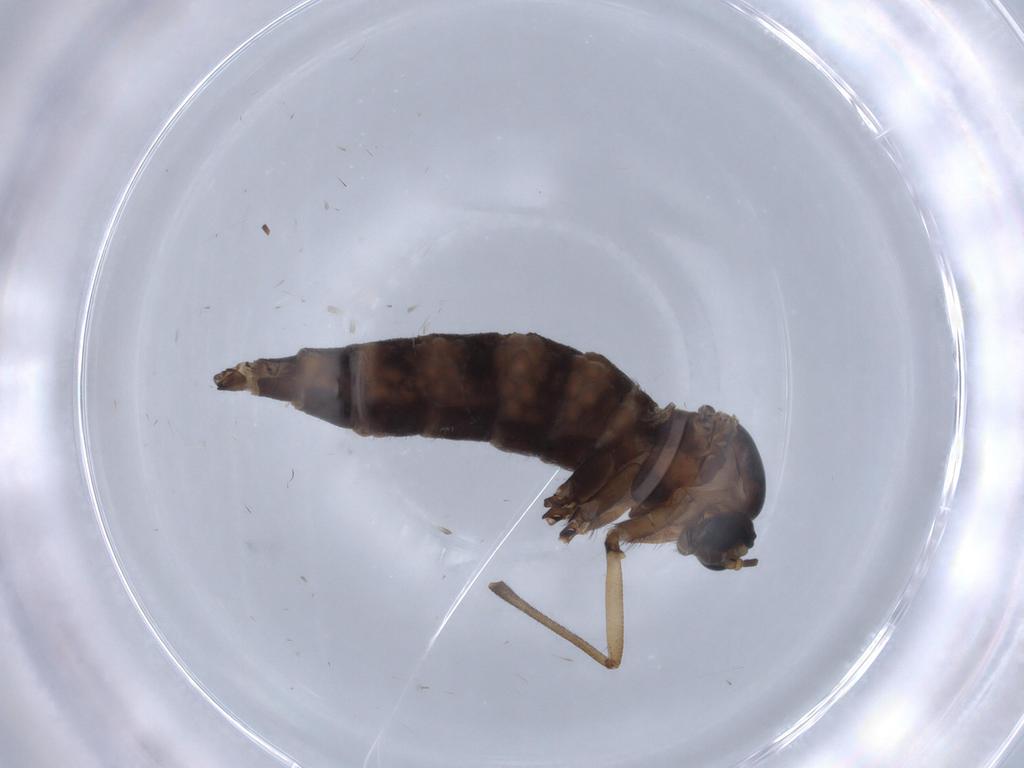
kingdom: Animalia
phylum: Arthropoda
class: Insecta
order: Diptera
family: Sciaridae
